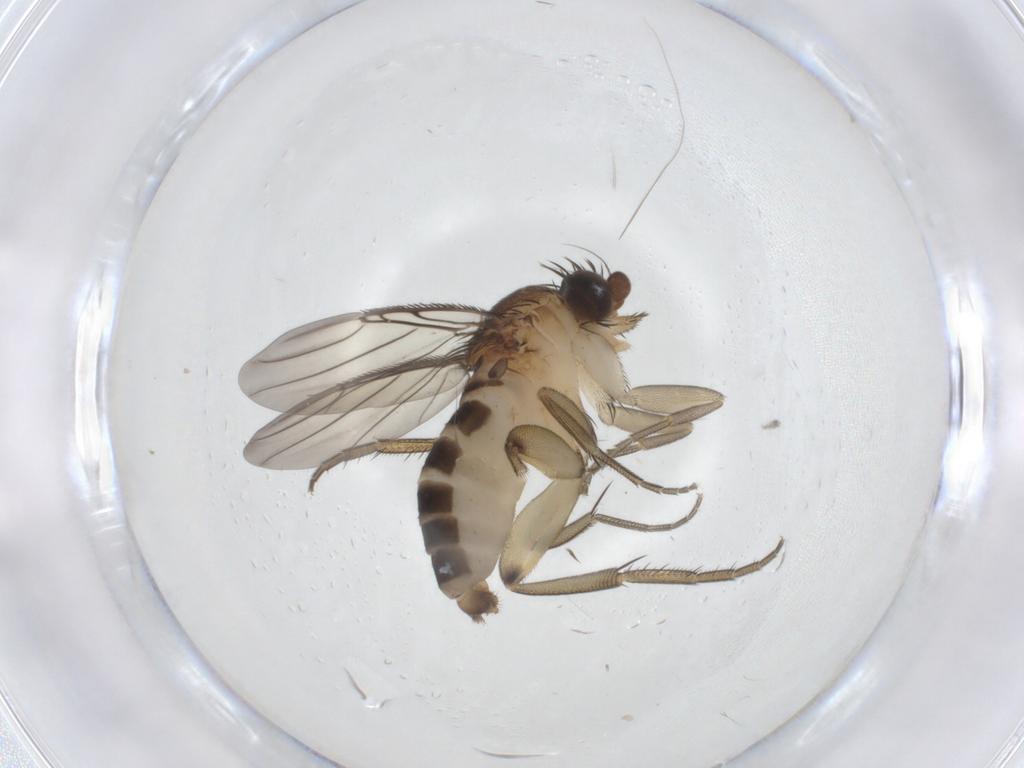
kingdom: Animalia
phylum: Arthropoda
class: Insecta
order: Diptera
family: Phoridae
